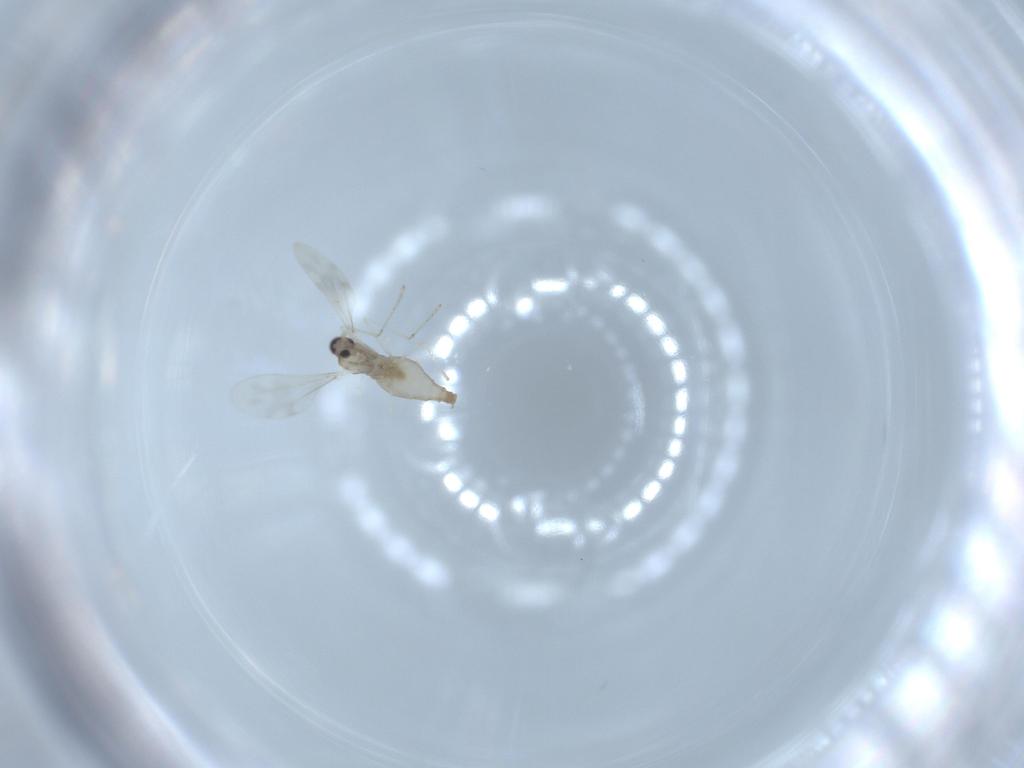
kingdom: Animalia
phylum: Arthropoda
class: Insecta
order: Diptera
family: Cecidomyiidae
